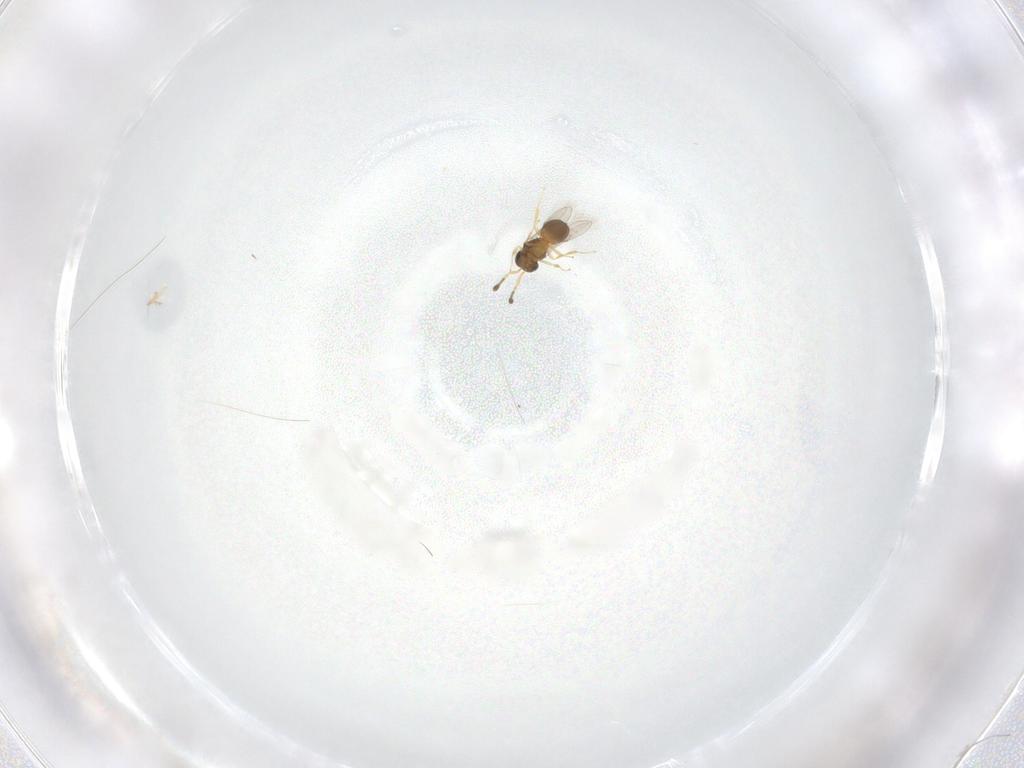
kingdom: Animalia
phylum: Arthropoda
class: Insecta
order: Hymenoptera
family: Scelionidae
